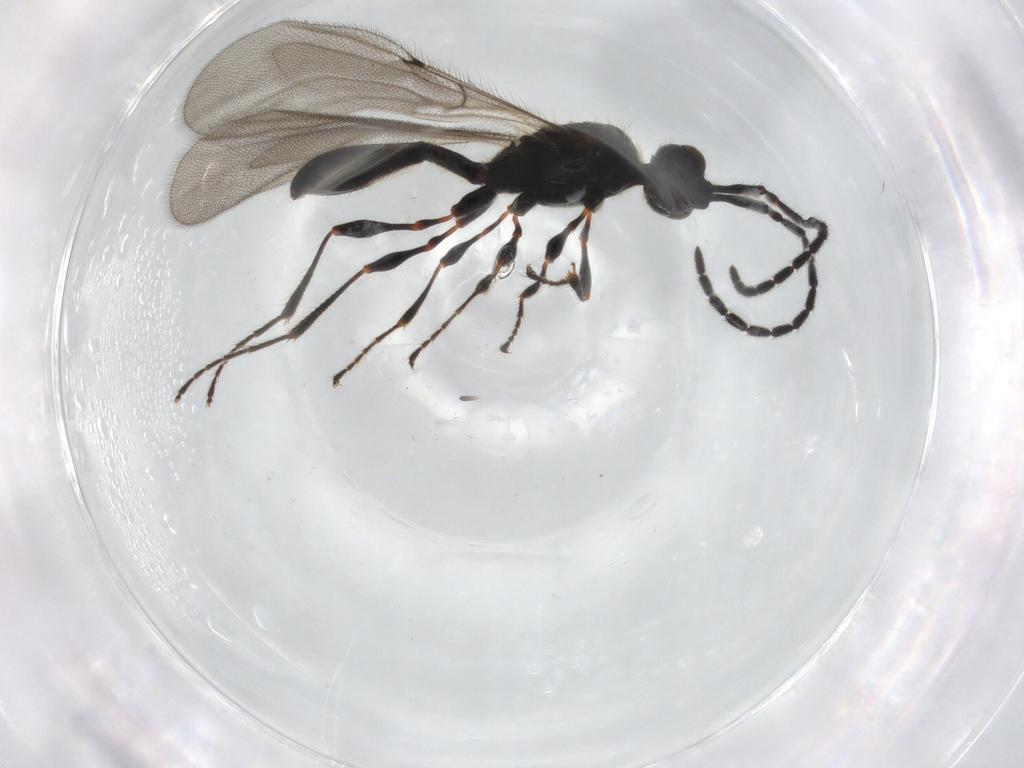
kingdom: Animalia
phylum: Arthropoda
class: Insecta
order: Hymenoptera
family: Diapriidae
